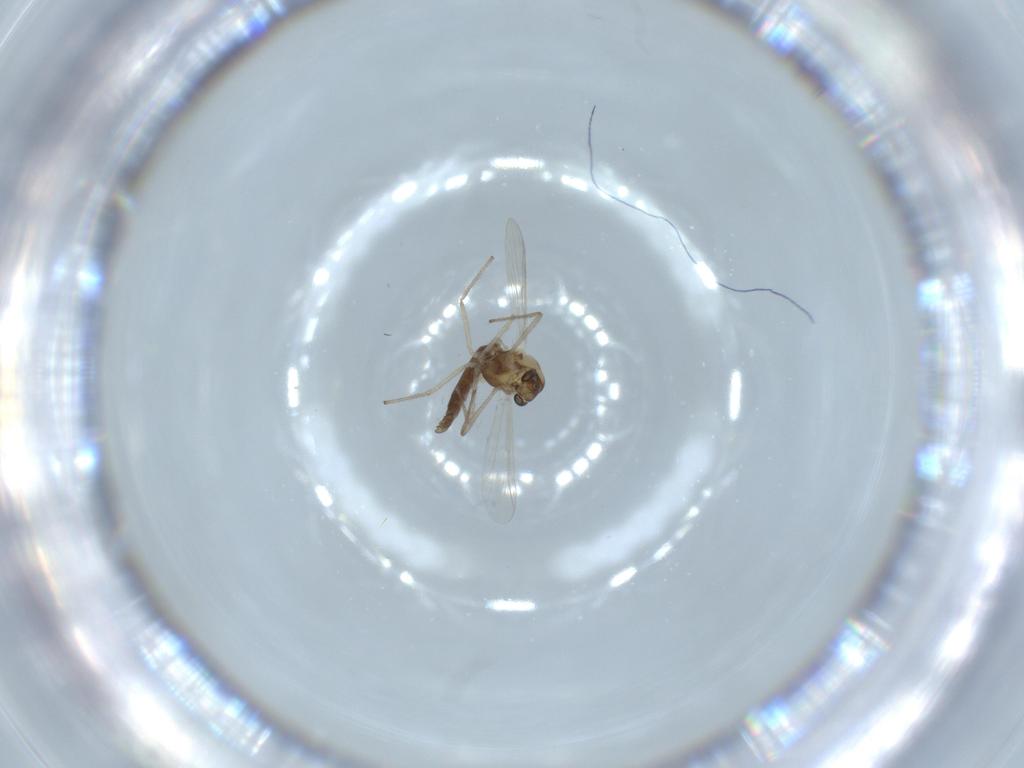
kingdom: Animalia
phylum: Arthropoda
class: Insecta
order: Diptera
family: Chironomidae
